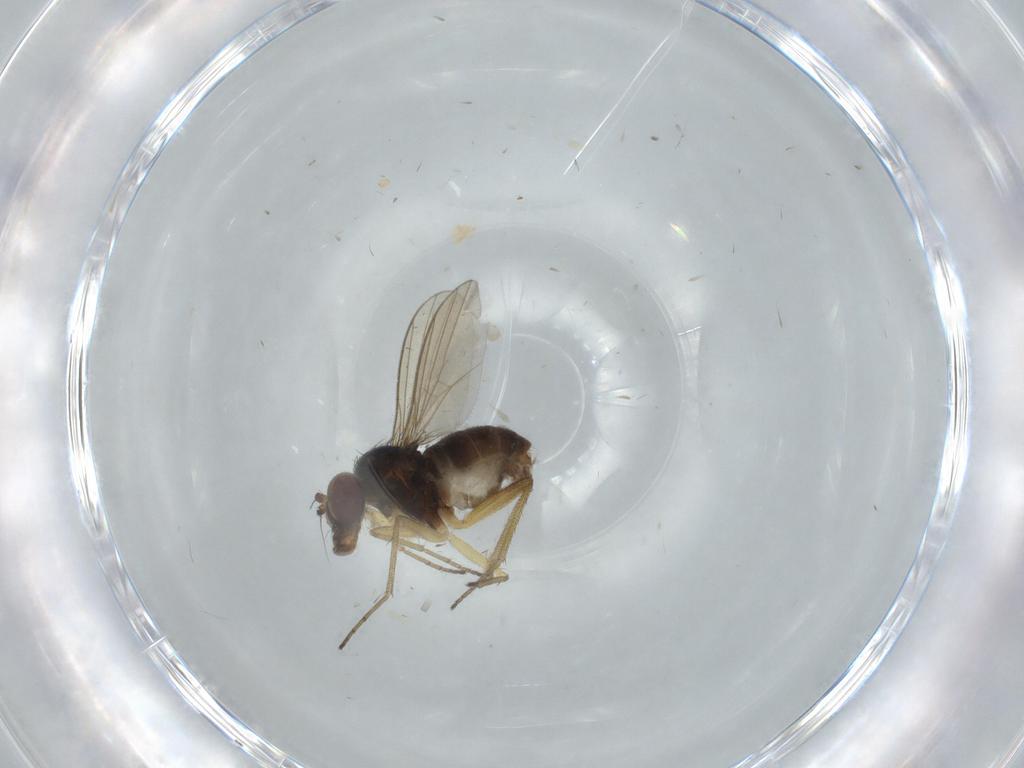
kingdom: Animalia
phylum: Arthropoda
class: Insecta
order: Diptera
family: Dolichopodidae
